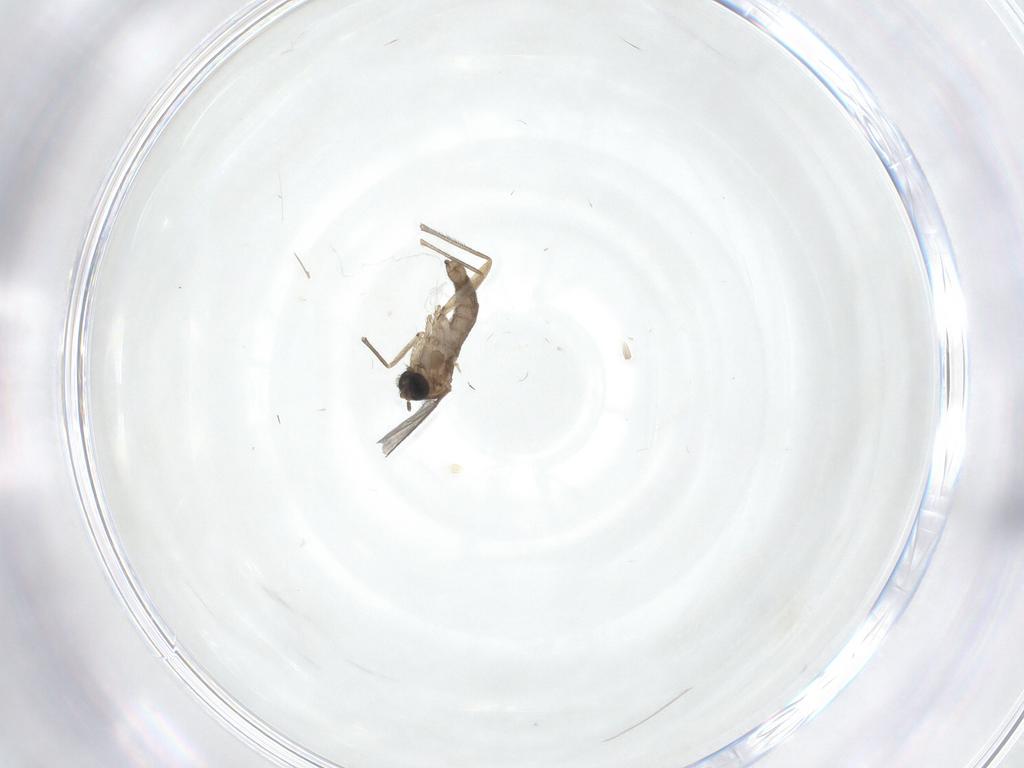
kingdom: Animalia
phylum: Arthropoda
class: Insecta
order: Diptera
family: Sciaridae
